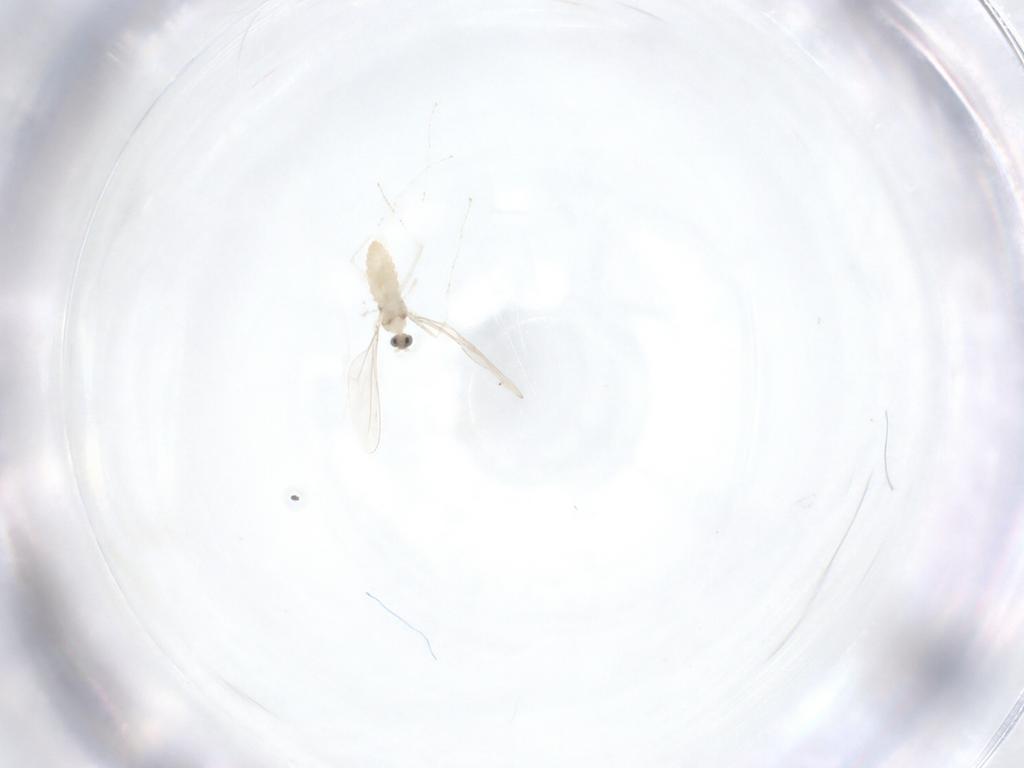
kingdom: Animalia
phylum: Arthropoda
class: Insecta
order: Diptera
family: Cecidomyiidae
